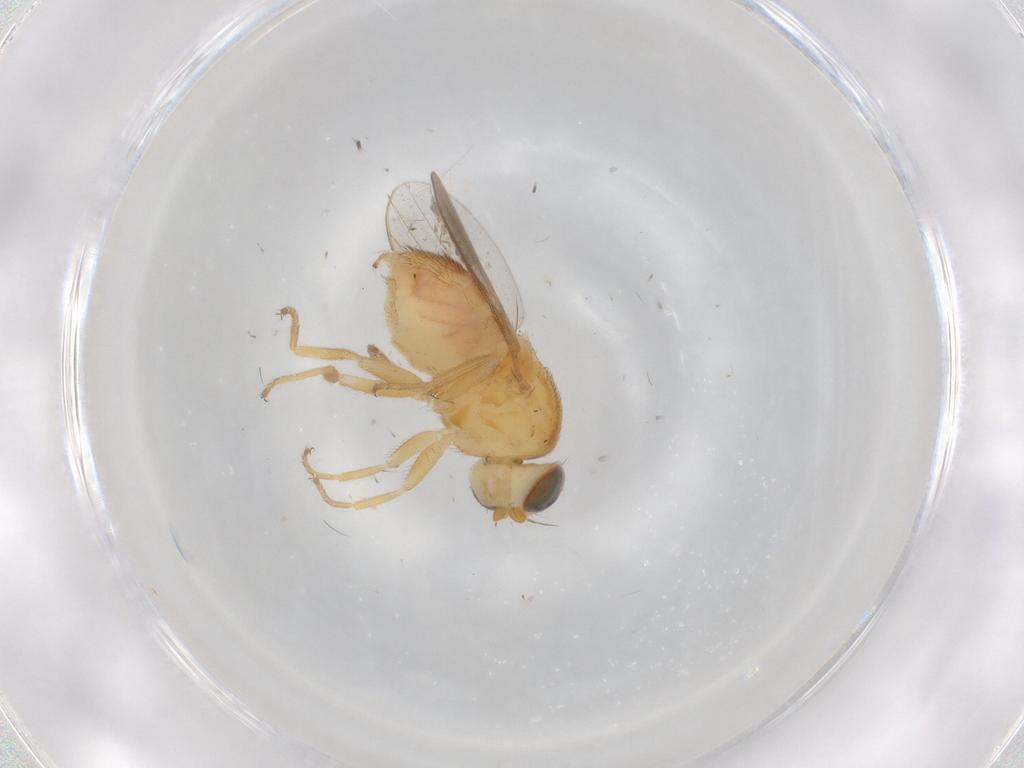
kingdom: Animalia
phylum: Arthropoda
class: Insecta
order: Diptera
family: Chloropidae
